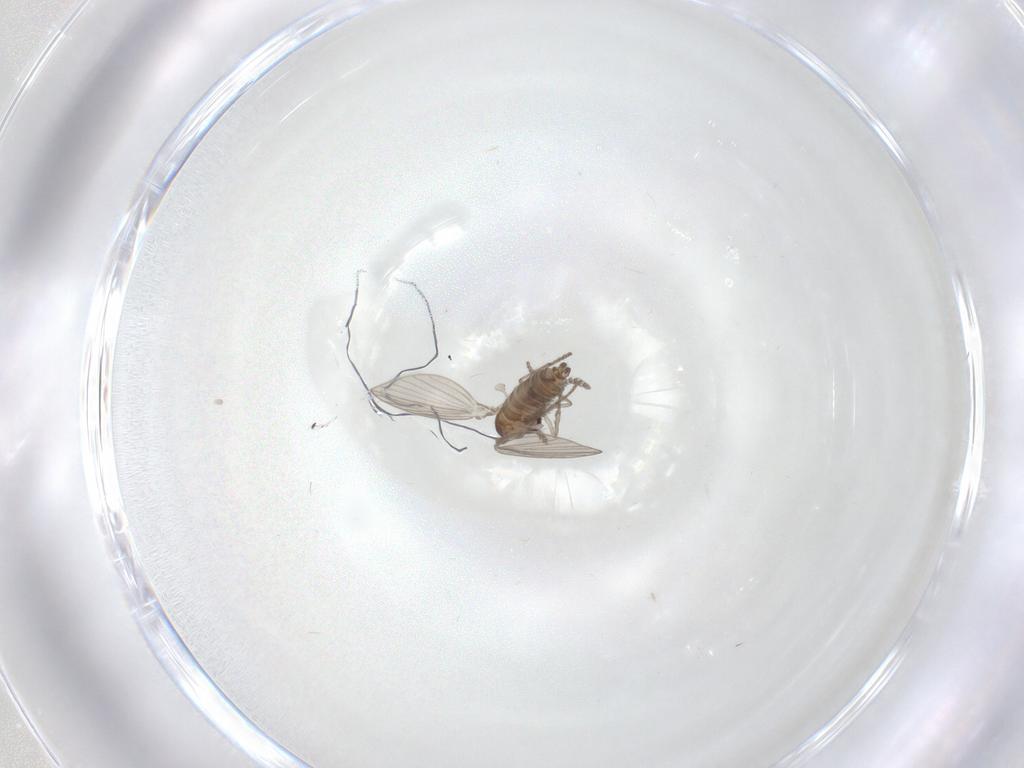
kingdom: Animalia
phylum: Arthropoda
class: Insecta
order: Diptera
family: Psychodidae
